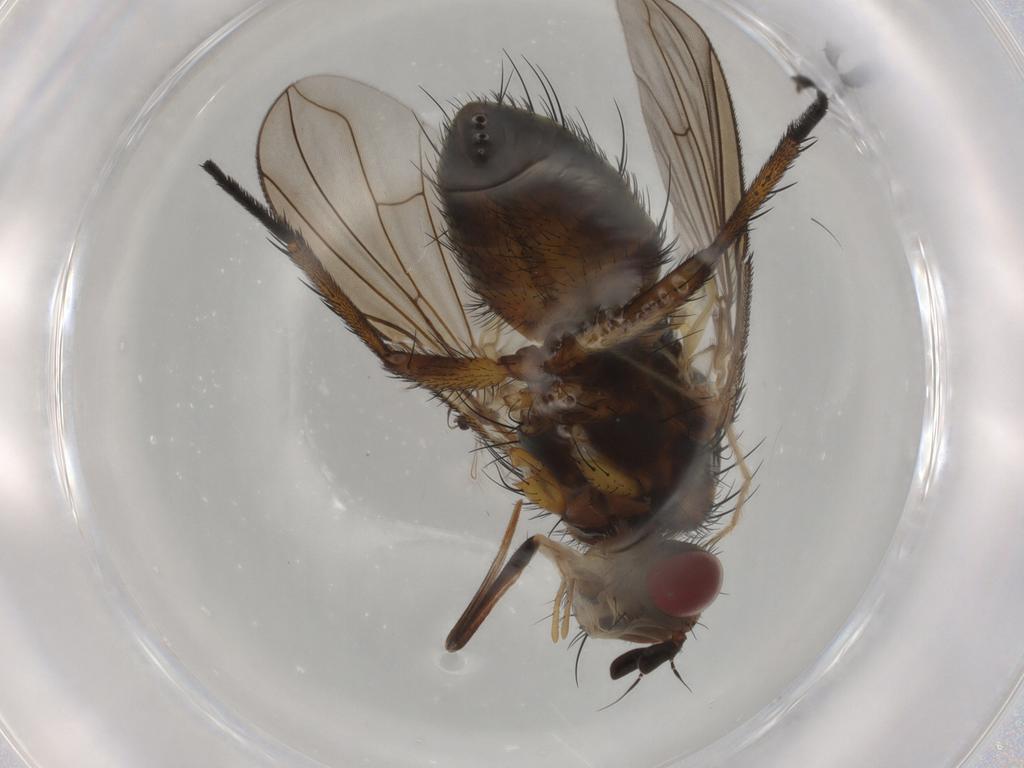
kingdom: Animalia
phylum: Arthropoda
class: Insecta
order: Diptera
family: Tachinidae
